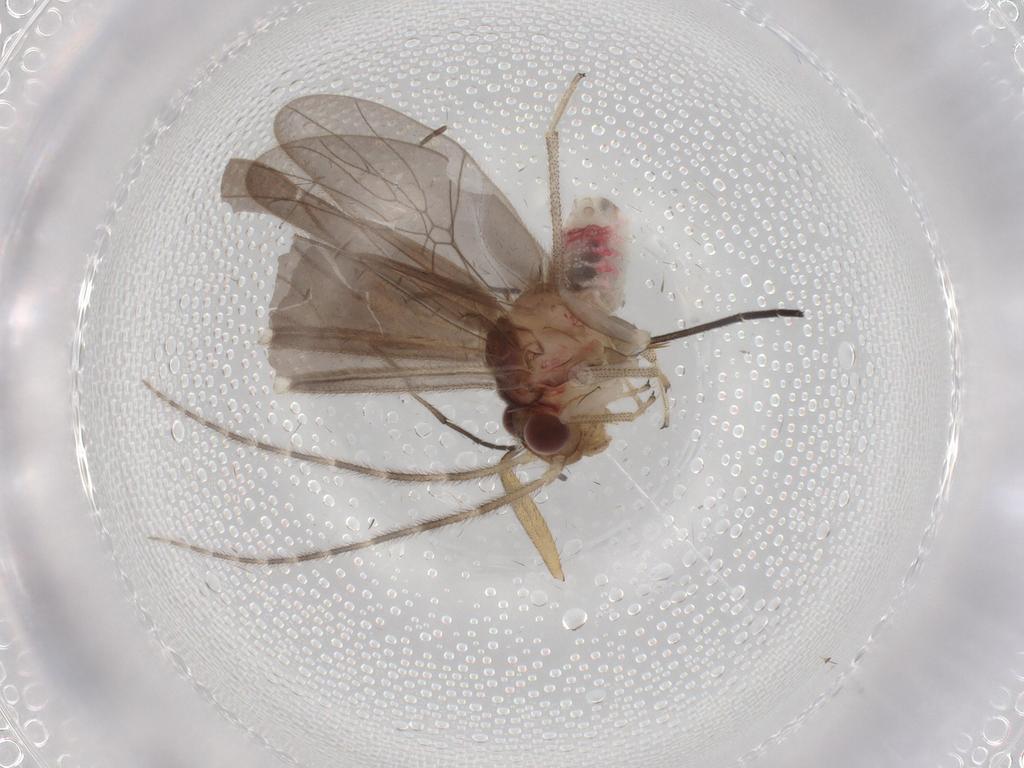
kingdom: Animalia
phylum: Arthropoda
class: Insecta
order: Psocodea
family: Amphipsocidae
